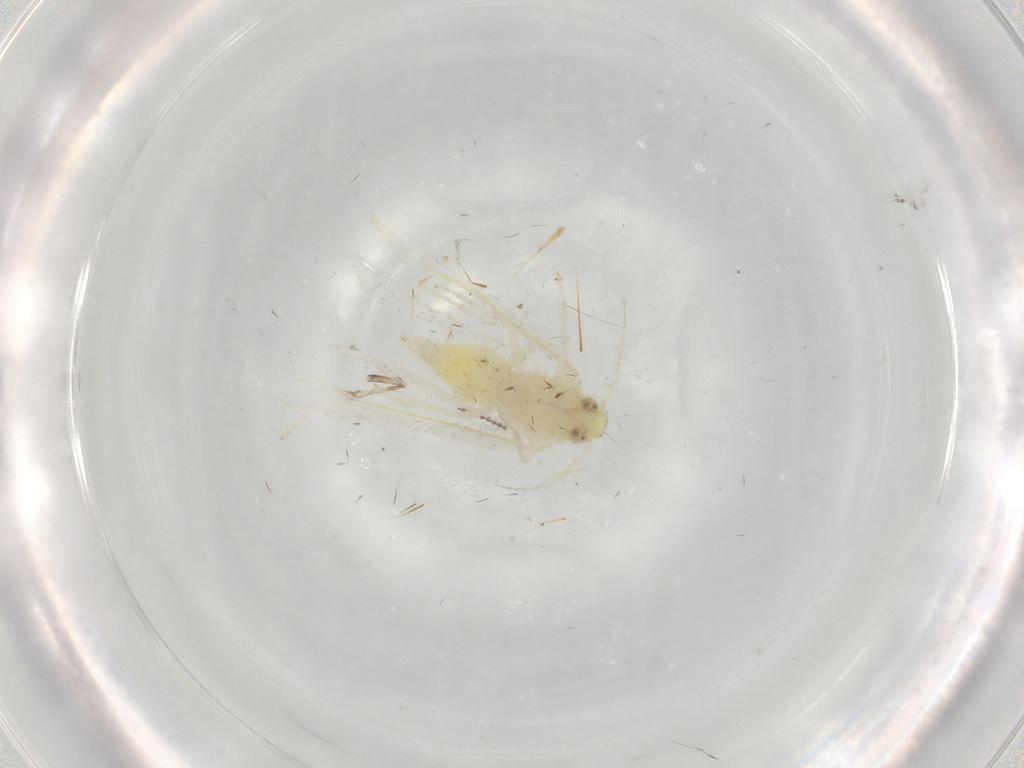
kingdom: Animalia
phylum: Arthropoda
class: Insecta
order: Hemiptera
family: Aleyrodidae
